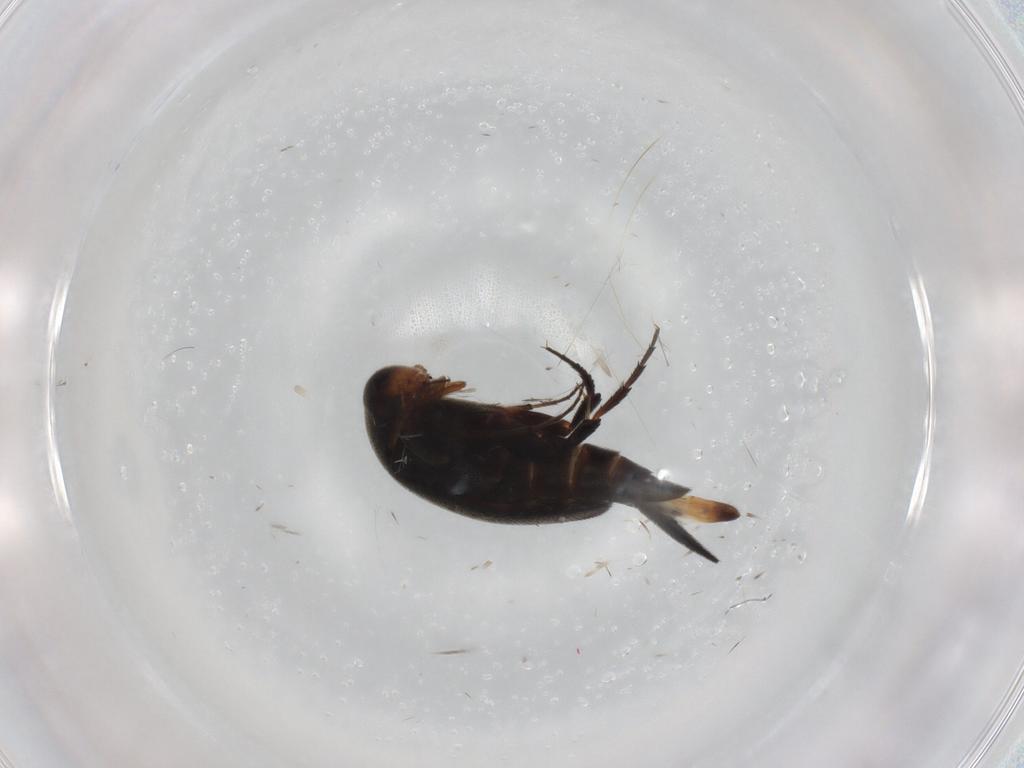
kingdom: Animalia
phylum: Arthropoda
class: Insecta
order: Coleoptera
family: Mordellidae
